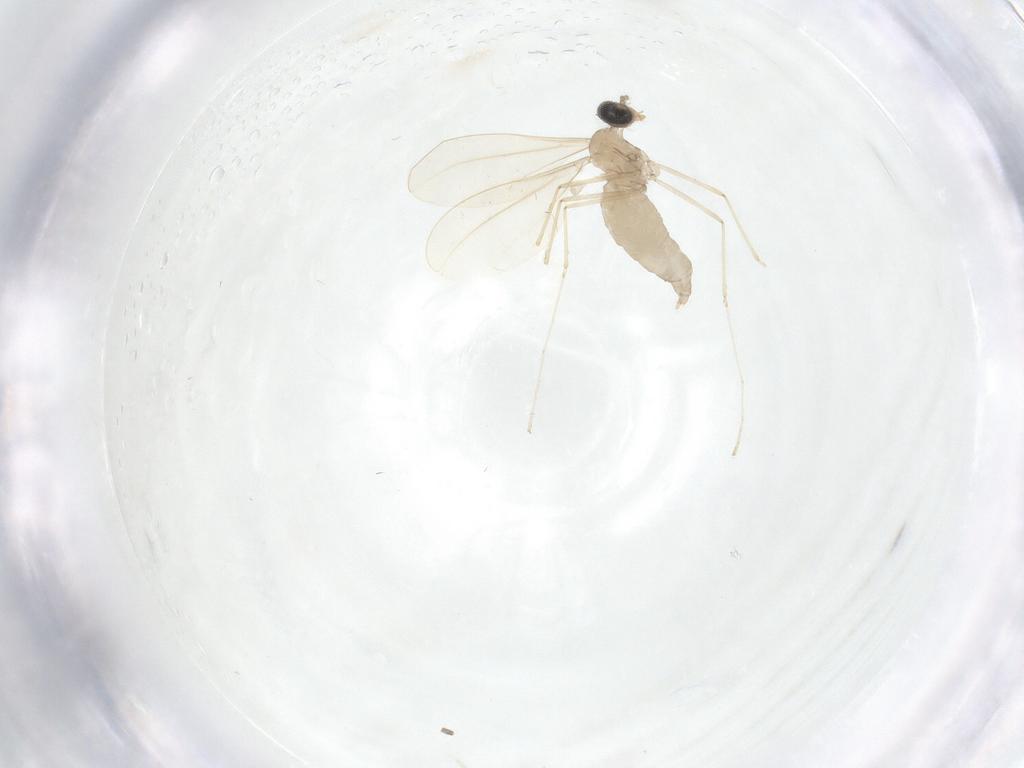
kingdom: Animalia
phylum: Arthropoda
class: Insecta
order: Diptera
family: Cecidomyiidae
